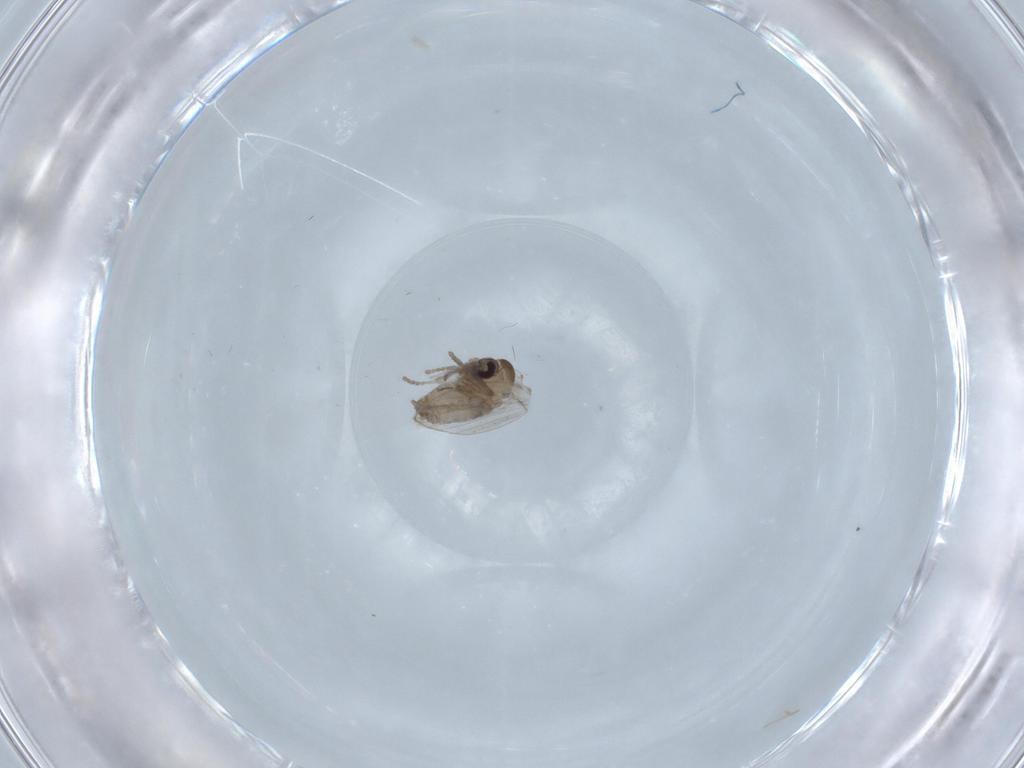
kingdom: Animalia
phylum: Arthropoda
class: Insecta
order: Diptera
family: Psychodidae
